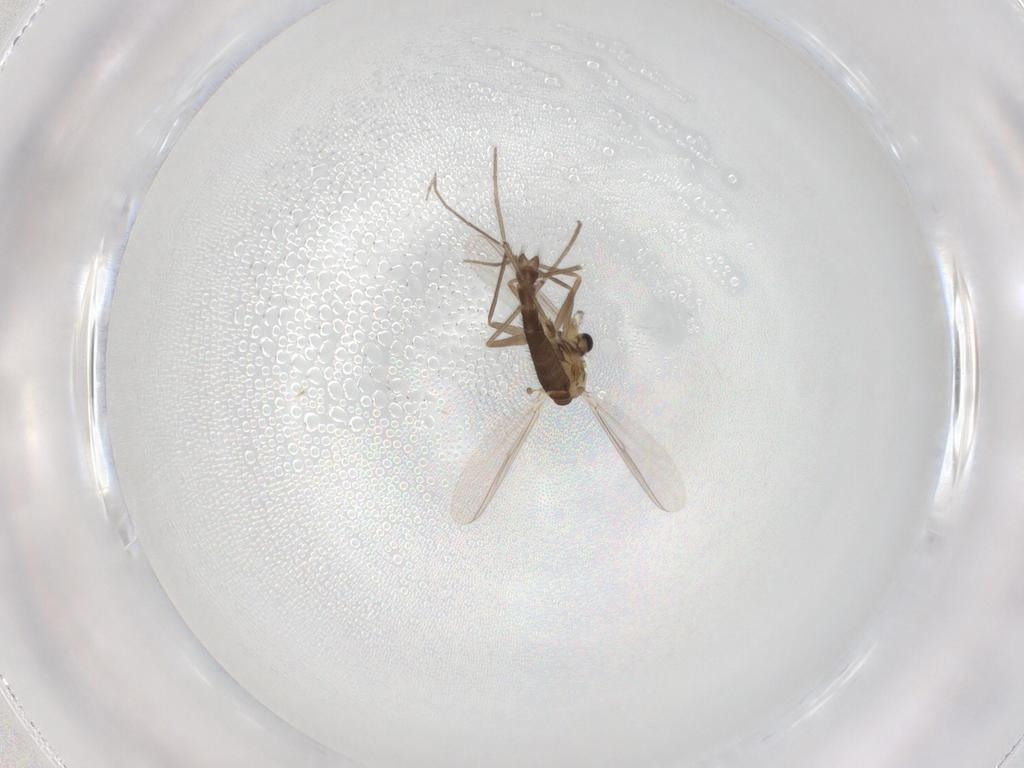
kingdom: Animalia
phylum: Arthropoda
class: Insecta
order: Diptera
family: Chironomidae
